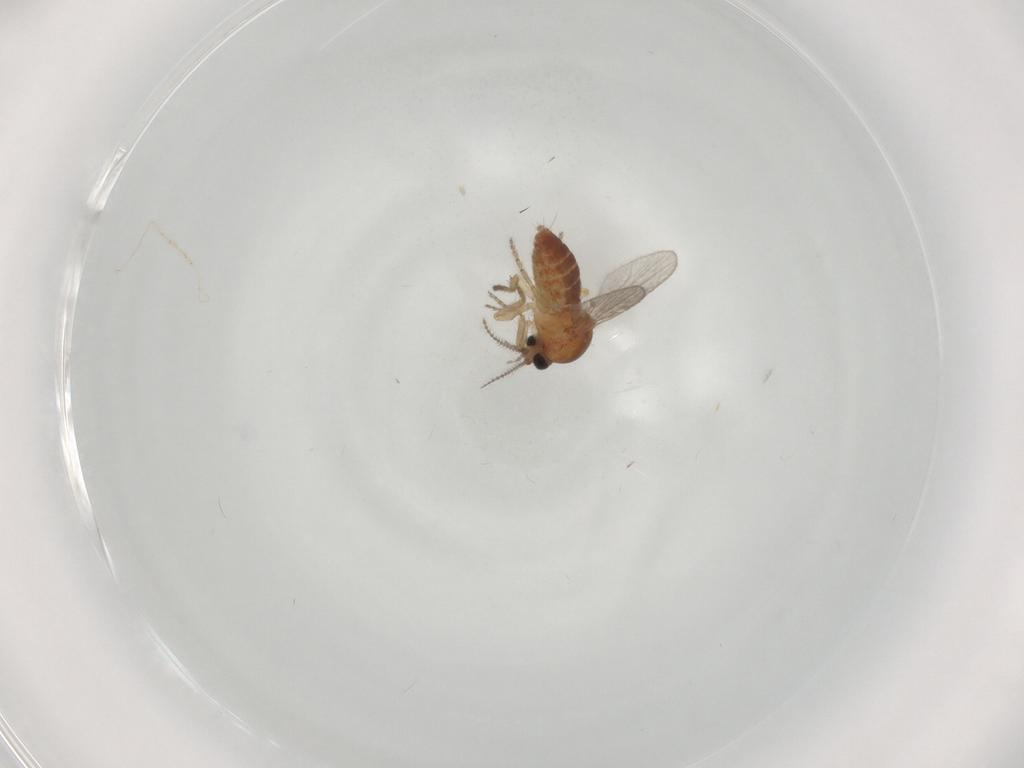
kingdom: Animalia
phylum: Arthropoda
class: Insecta
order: Diptera
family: Ceratopogonidae
